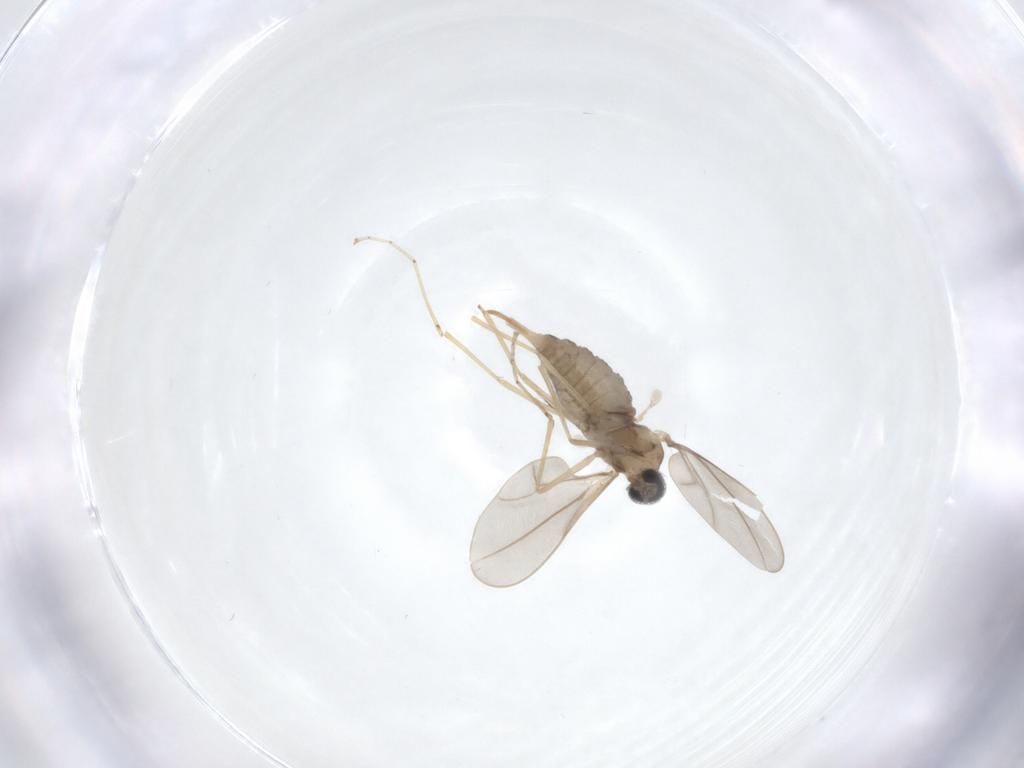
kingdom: Animalia
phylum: Arthropoda
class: Insecta
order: Diptera
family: Cecidomyiidae
